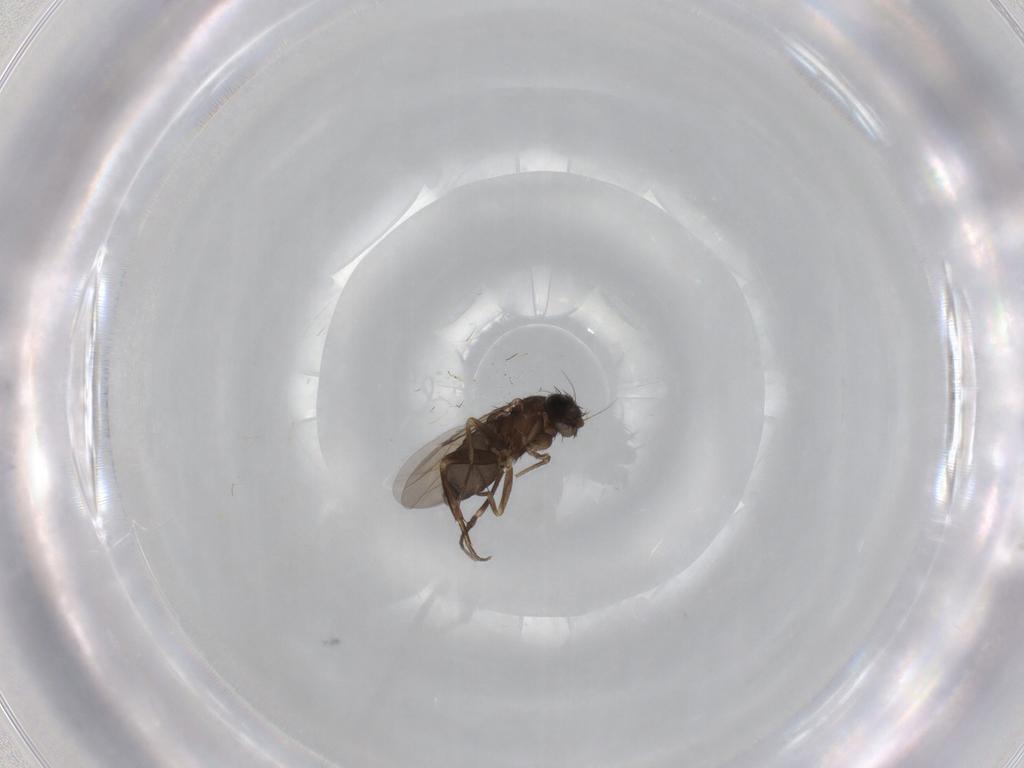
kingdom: Animalia
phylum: Arthropoda
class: Insecta
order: Diptera
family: Phoridae
